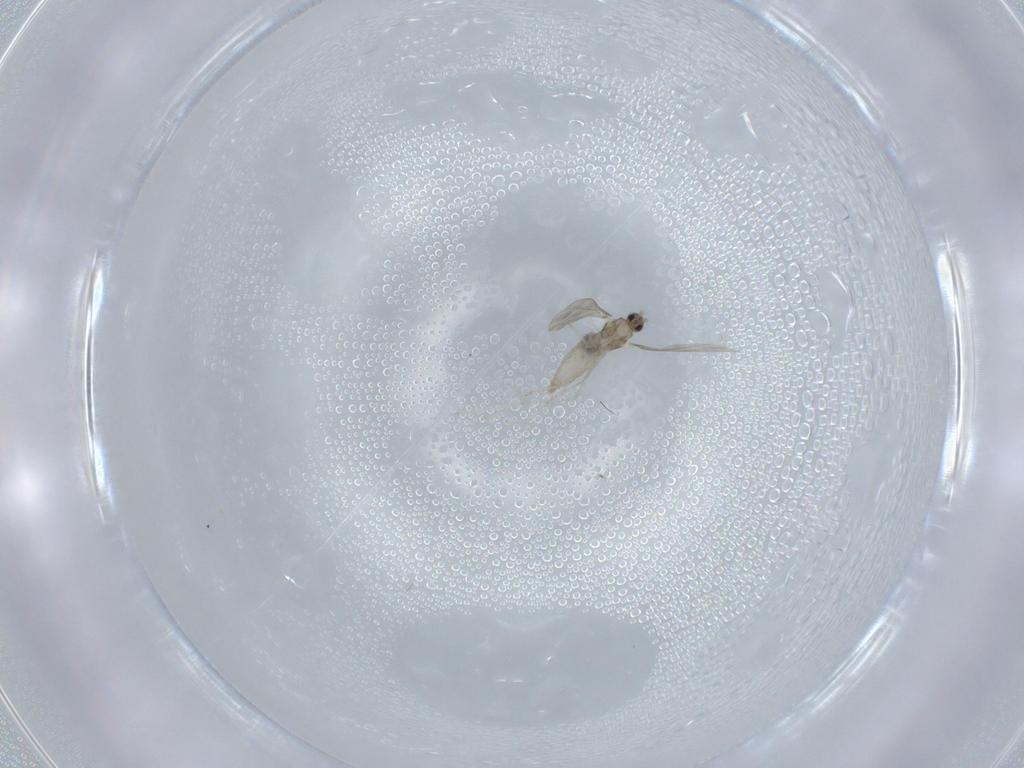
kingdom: Animalia
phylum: Arthropoda
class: Insecta
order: Diptera
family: Cecidomyiidae
